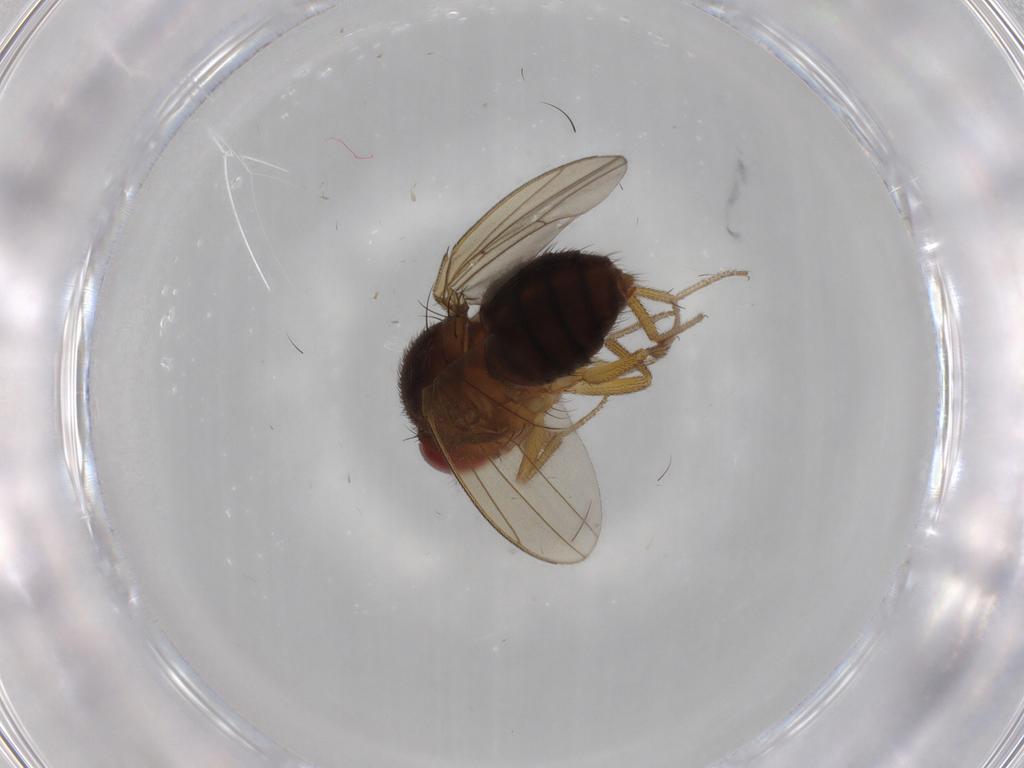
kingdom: Animalia
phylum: Arthropoda
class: Insecta
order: Diptera
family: Drosophilidae
